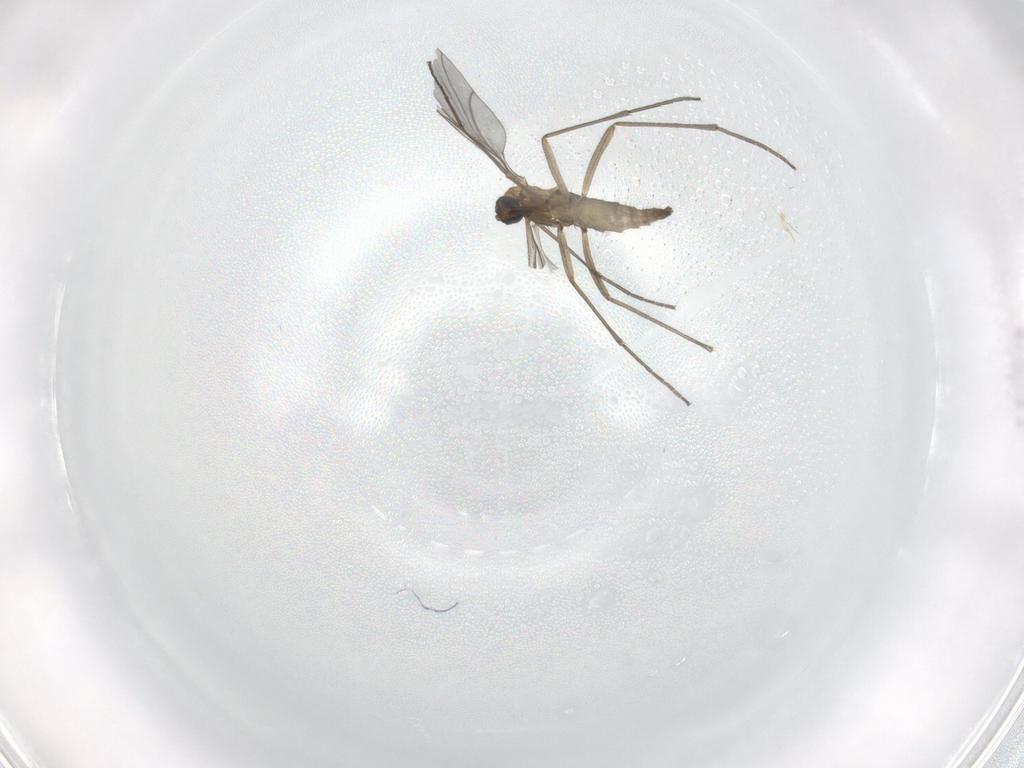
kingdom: Animalia
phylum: Arthropoda
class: Insecta
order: Diptera
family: Sciaridae
